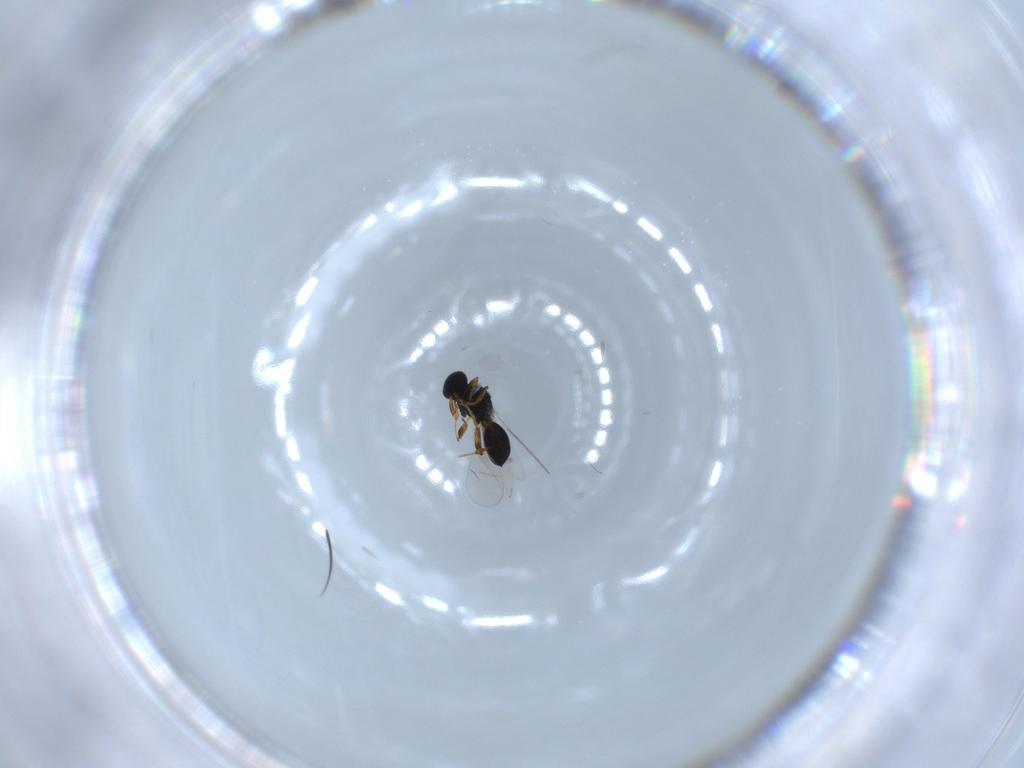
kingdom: Animalia
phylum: Arthropoda
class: Insecta
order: Hymenoptera
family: Platygastridae
